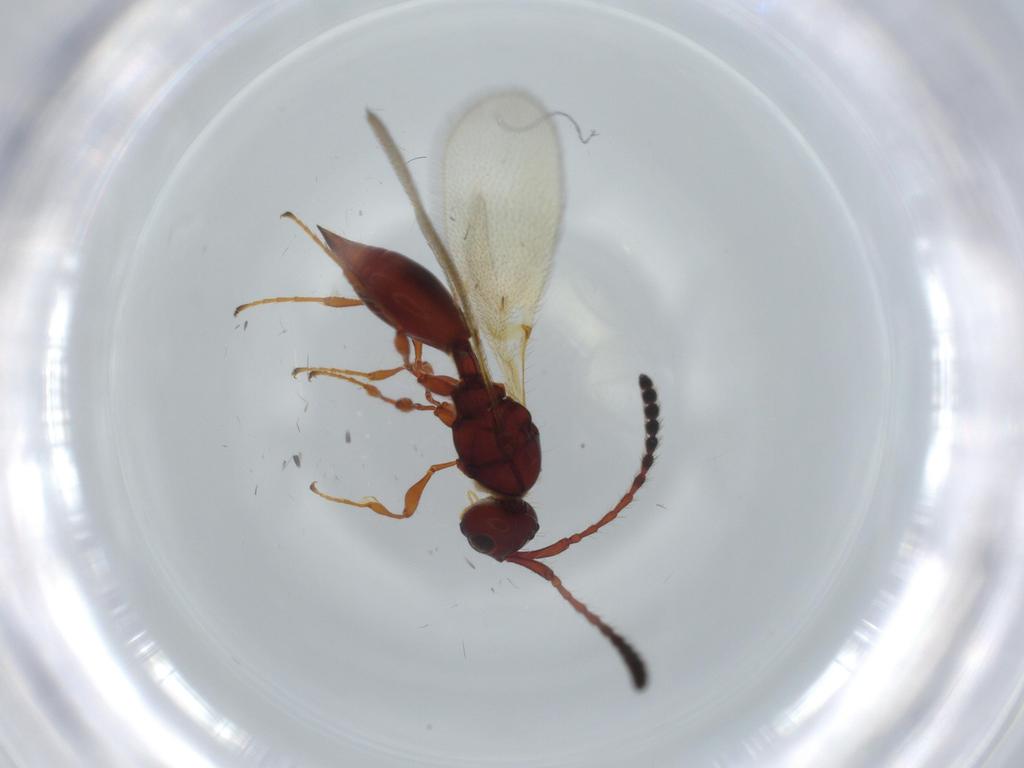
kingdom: Animalia
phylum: Arthropoda
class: Insecta
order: Hymenoptera
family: Diapriidae
